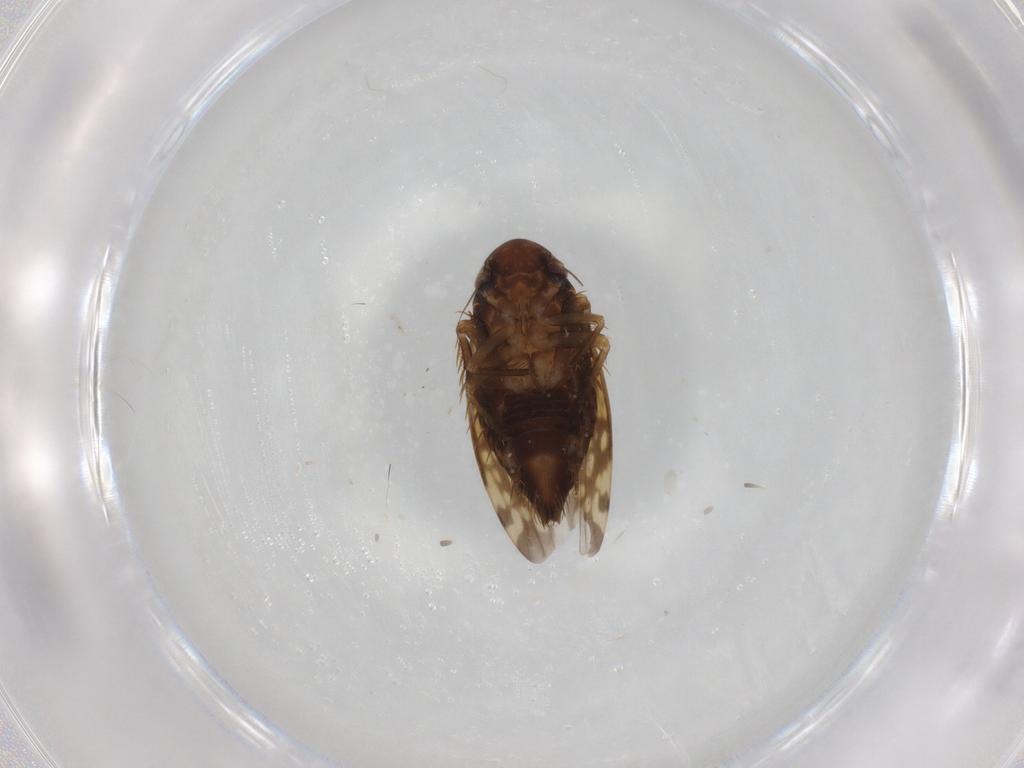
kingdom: Animalia
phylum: Arthropoda
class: Insecta
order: Hemiptera
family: Cicadellidae
